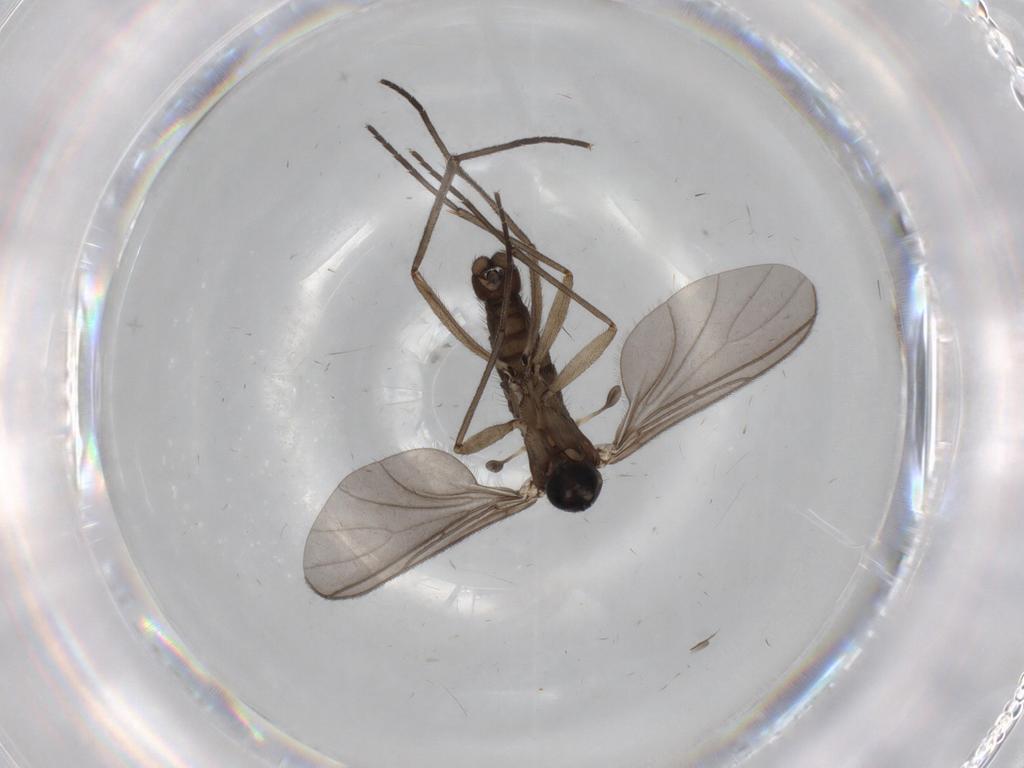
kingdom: Animalia
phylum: Arthropoda
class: Insecta
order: Diptera
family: Sciaridae
